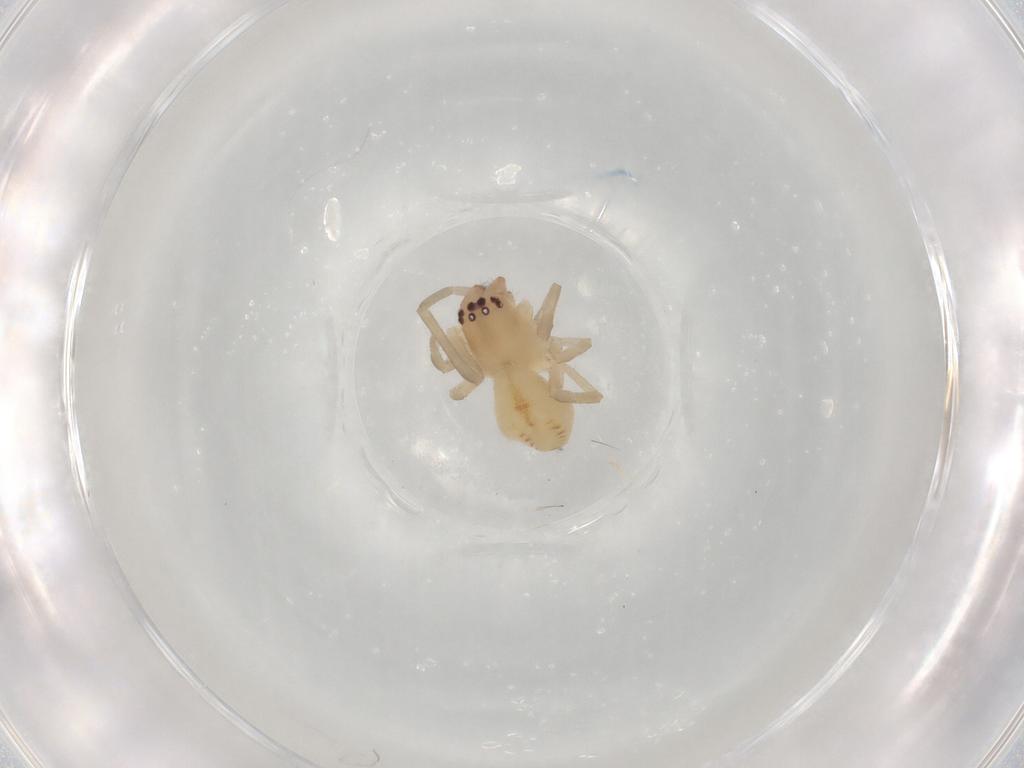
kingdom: Animalia
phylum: Arthropoda
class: Arachnida
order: Araneae
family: Cheiracanthiidae
